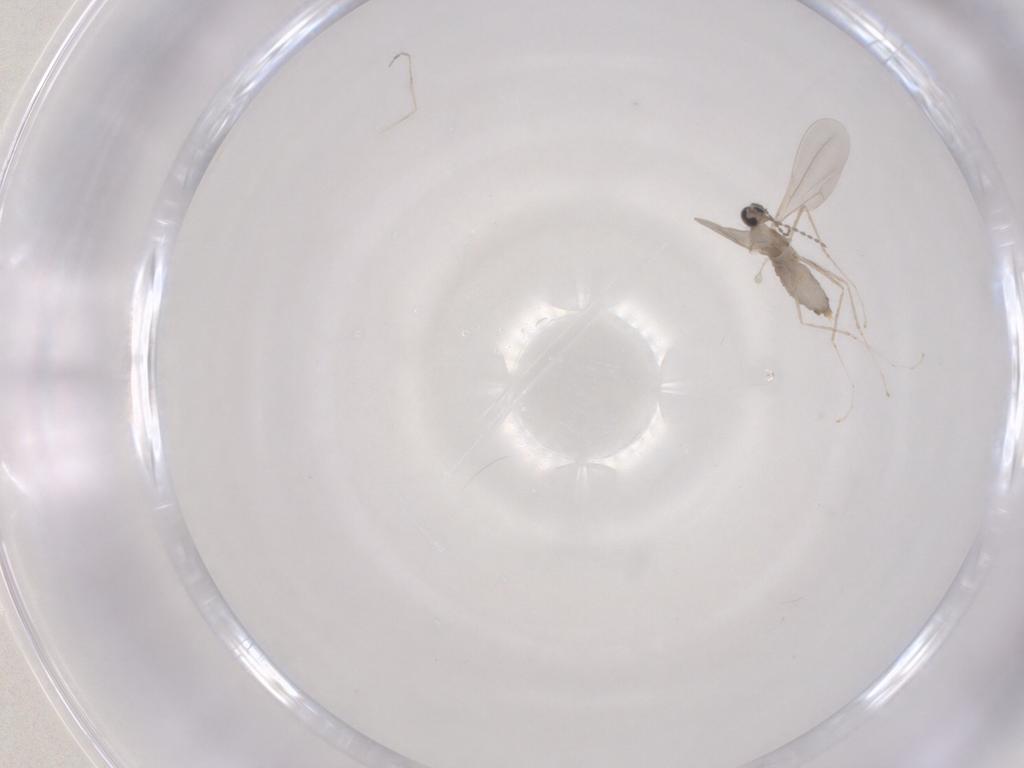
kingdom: Animalia
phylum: Arthropoda
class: Insecta
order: Diptera
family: Cecidomyiidae
